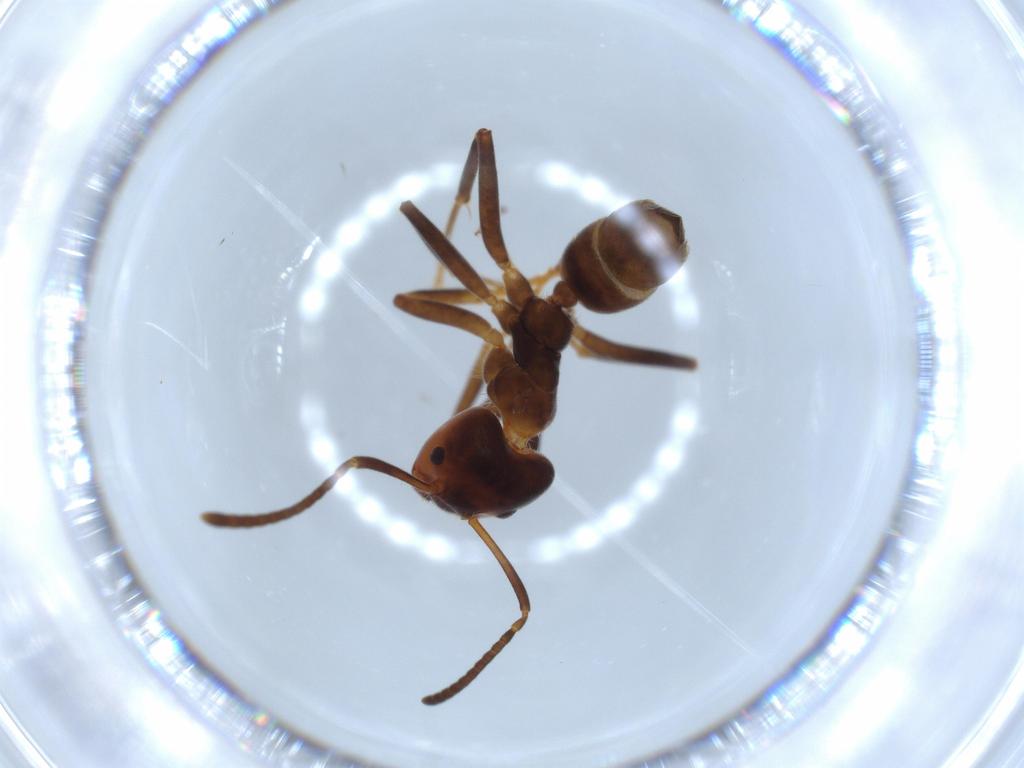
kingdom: Animalia
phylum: Arthropoda
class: Insecta
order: Hymenoptera
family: Formicidae
